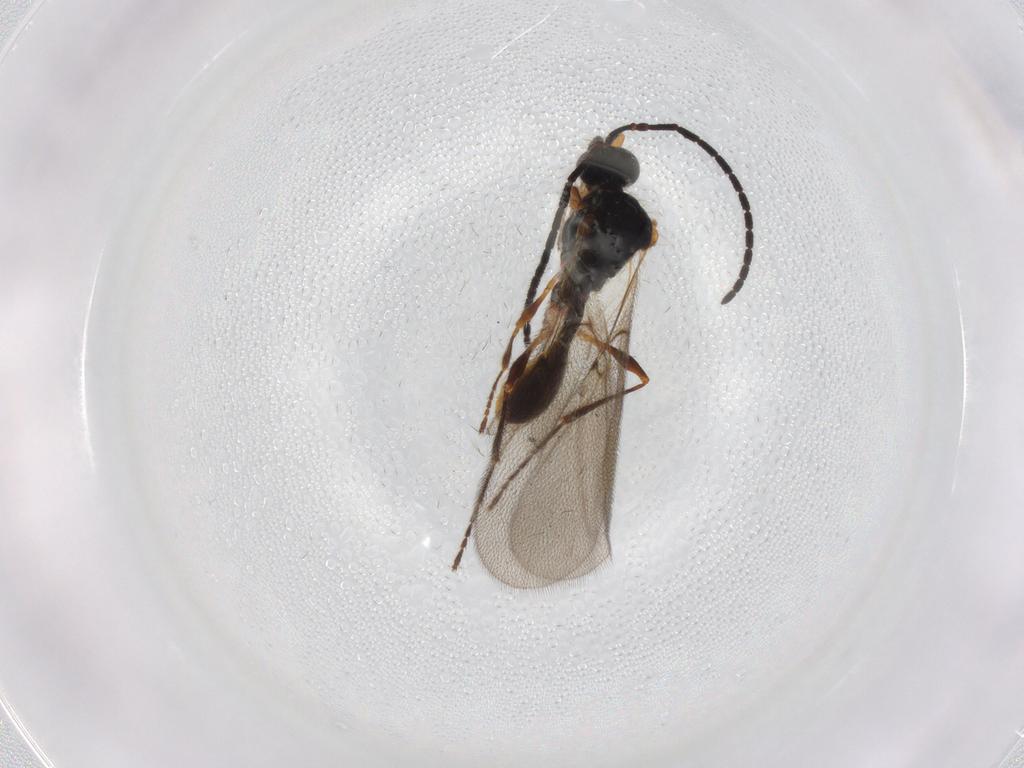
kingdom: Animalia
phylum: Arthropoda
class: Insecta
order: Hymenoptera
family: Diapriidae
